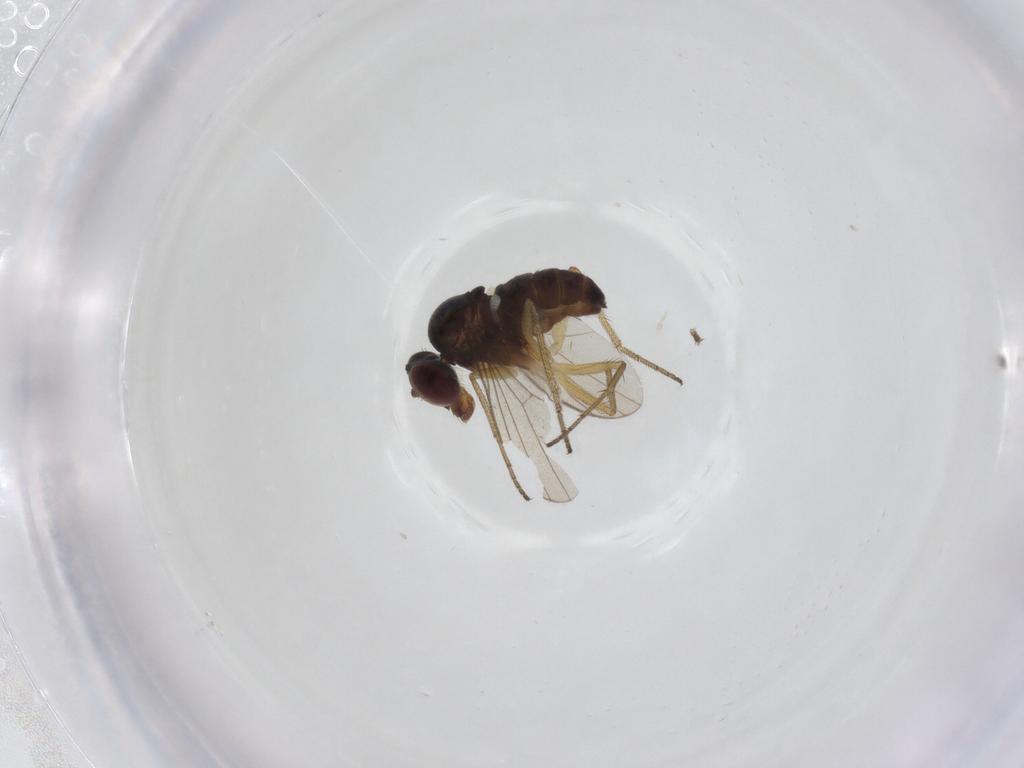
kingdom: Animalia
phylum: Arthropoda
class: Insecta
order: Diptera
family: Dolichopodidae
